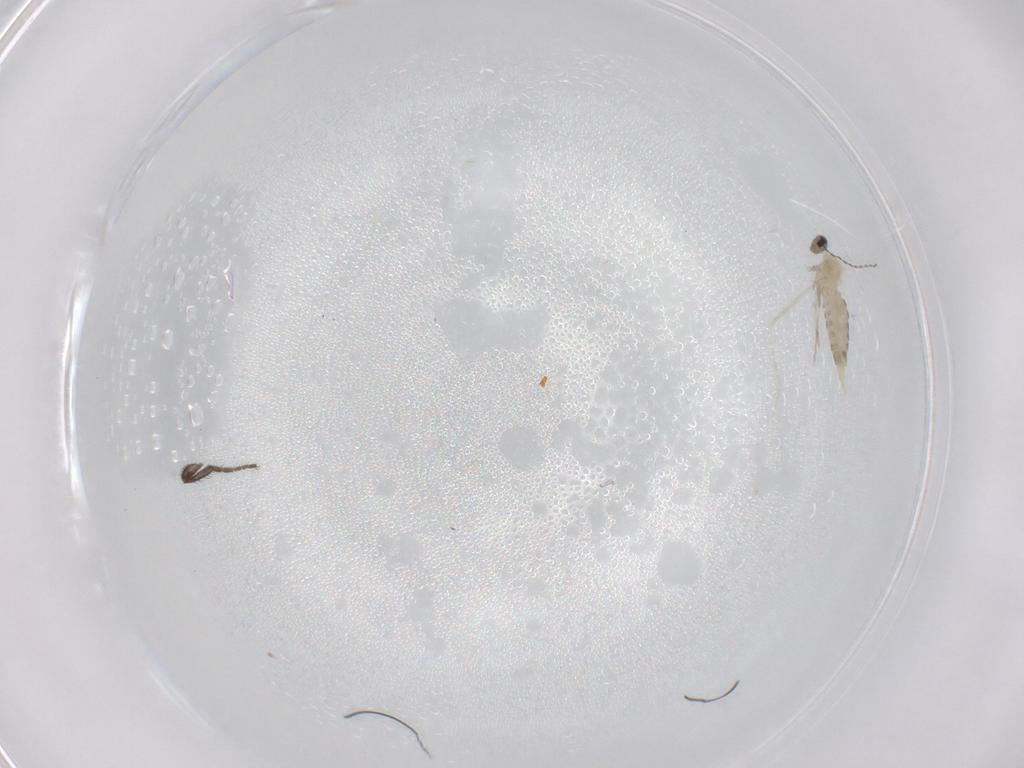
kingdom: Animalia
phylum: Arthropoda
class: Insecta
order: Diptera
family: Cecidomyiidae
